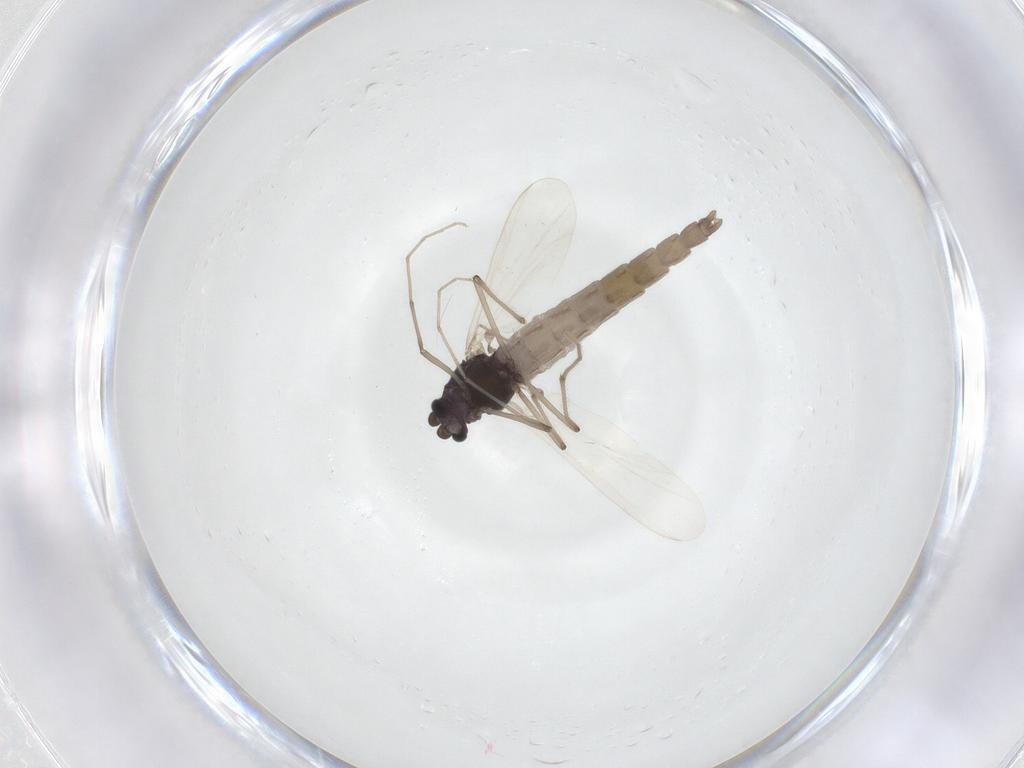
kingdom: Animalia
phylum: Arthropoda
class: Insecta
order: Diptera
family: Chironomidae
